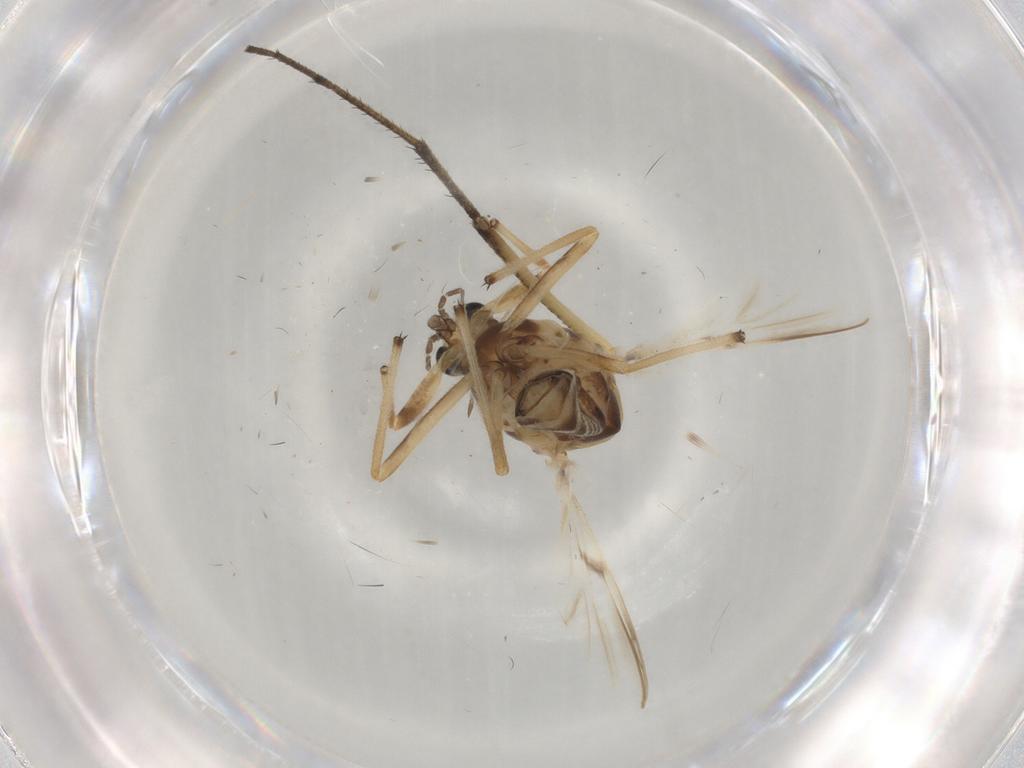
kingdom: Animalia
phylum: Arthropoda
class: Insecta
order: Diptera
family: Chironomidae
